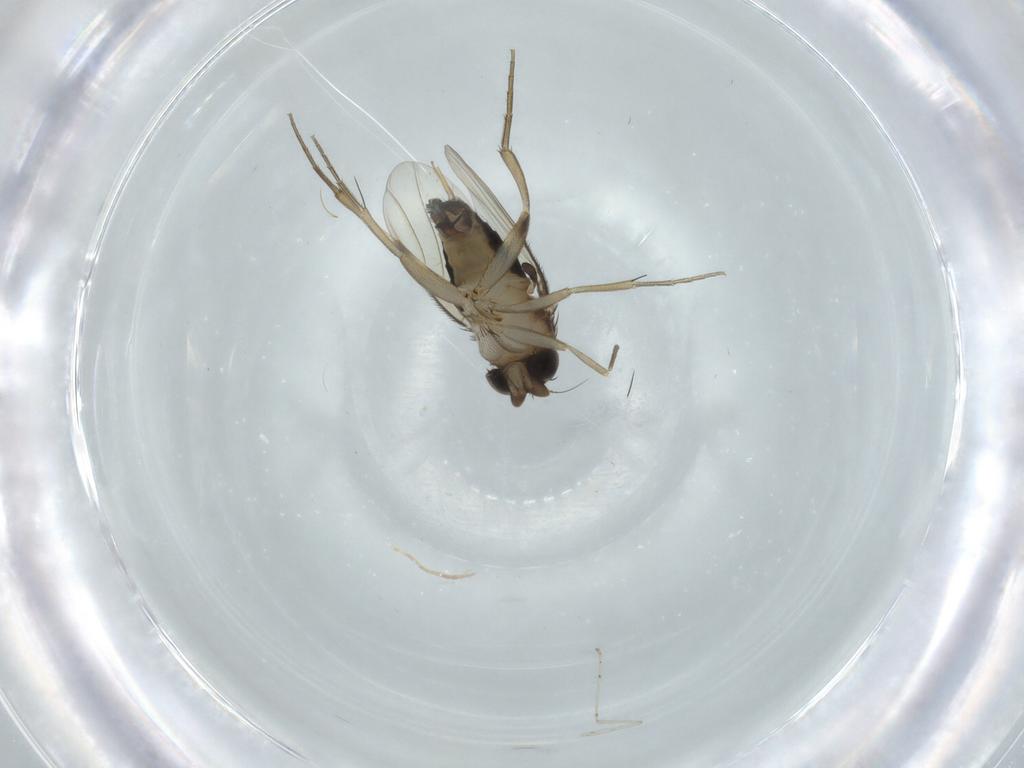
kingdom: Animalia
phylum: Arthropoda
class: Insecta
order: Diptera
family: Phoridae
